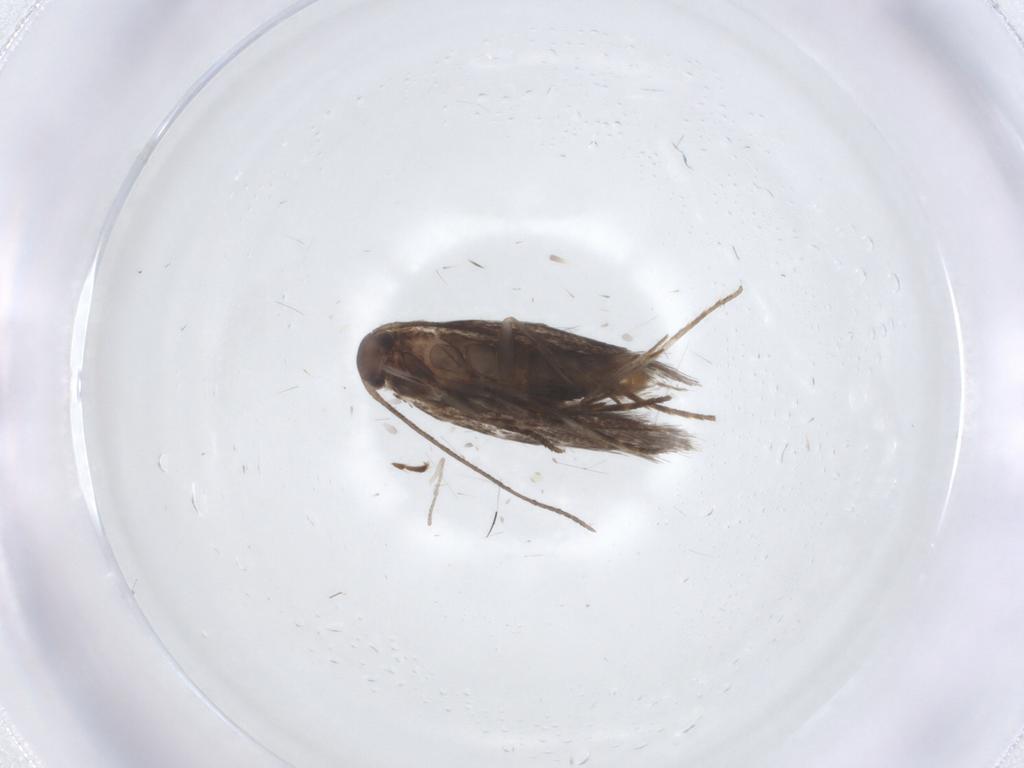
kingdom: Animalia
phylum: Arthropoda
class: Insecta
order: Lepidoptera
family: Elachistidae
